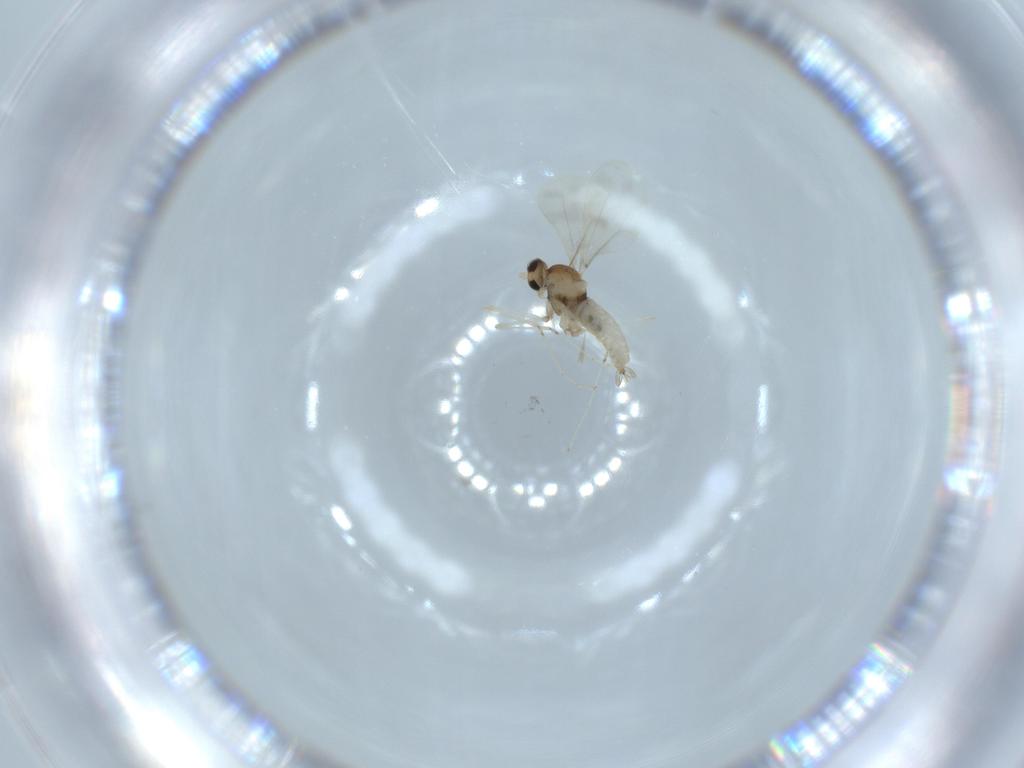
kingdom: Animalia
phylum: Arthropoda
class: Insecta
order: Diptera
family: Cecidomyiidae
